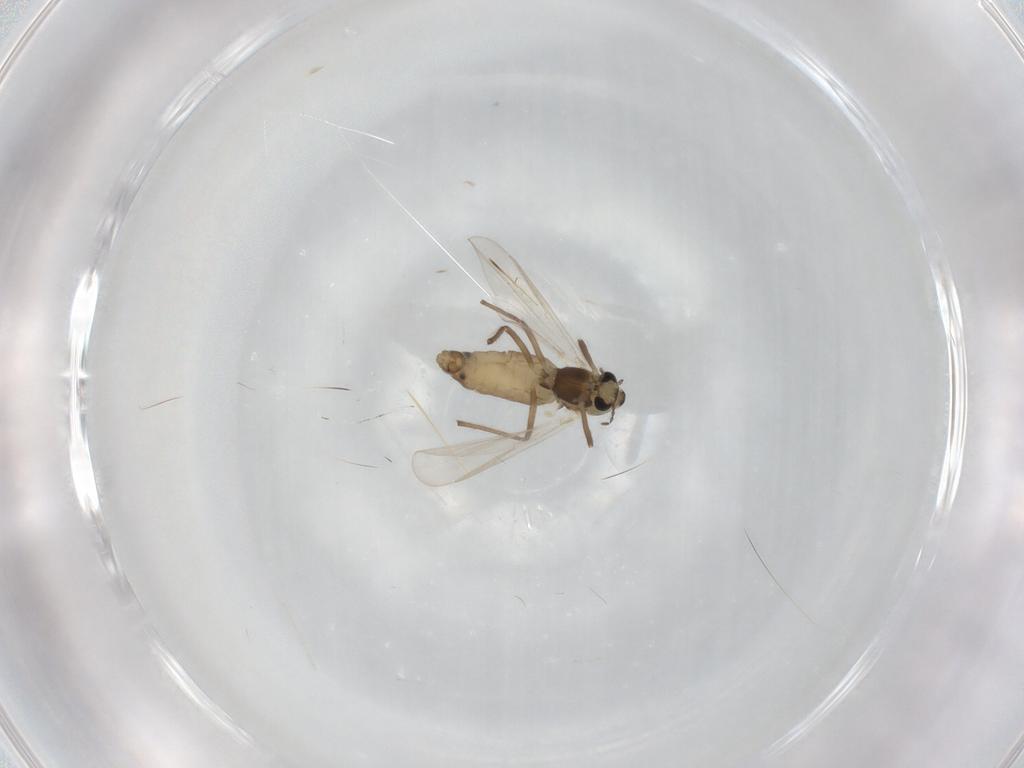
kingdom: Animalia
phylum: Arthropoda
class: Insecta
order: Diptera
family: Chironomidae
